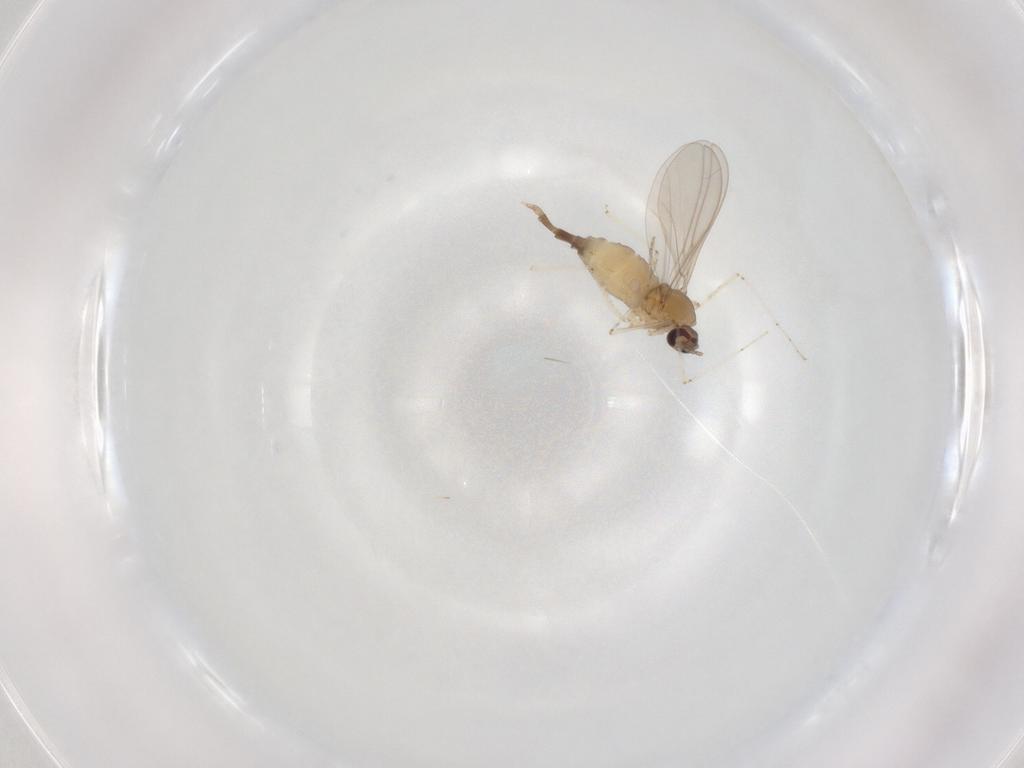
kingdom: Animalia
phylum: Arthropoda
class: Insecta
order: Diptera
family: Cecidomyiidae
